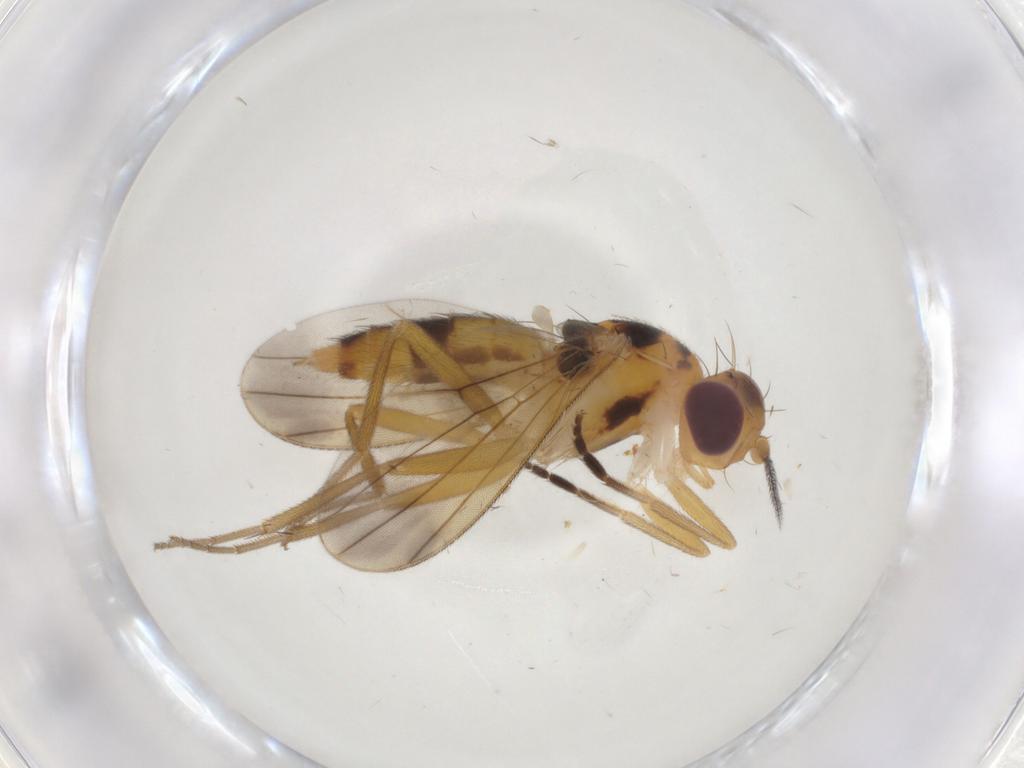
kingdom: Animalia
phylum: Arthropoda
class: Insecta
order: Diptera
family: Clusiidae
